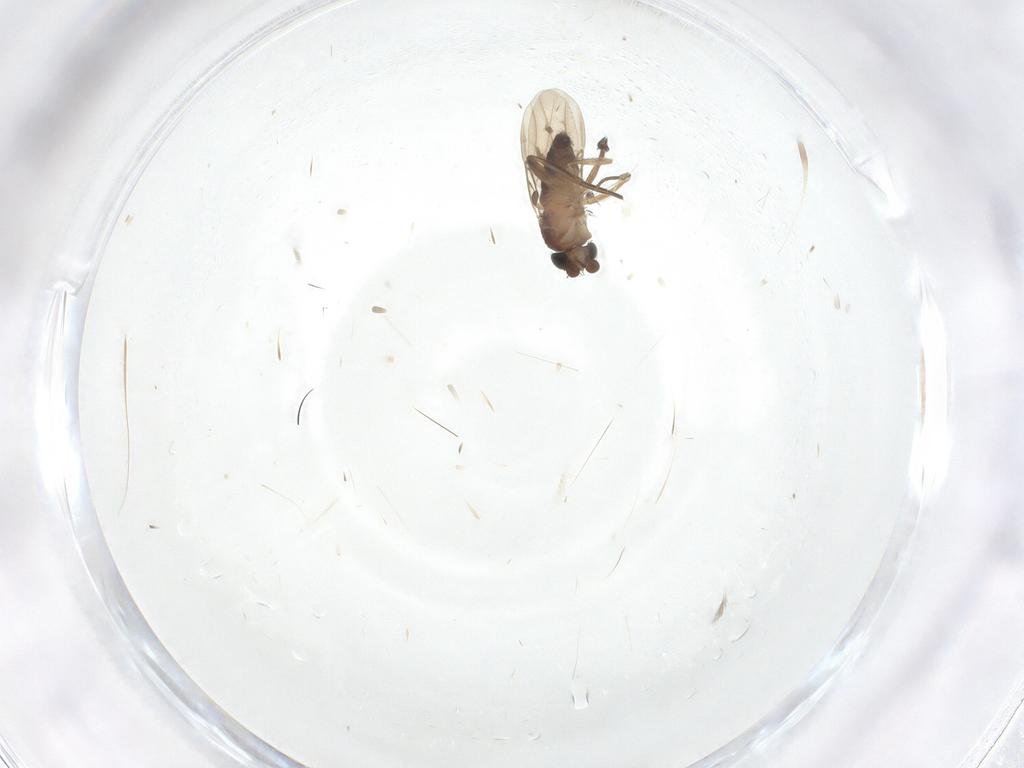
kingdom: Animalia
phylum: Arthropoda
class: Insecta
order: Diptera
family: Phoridae
